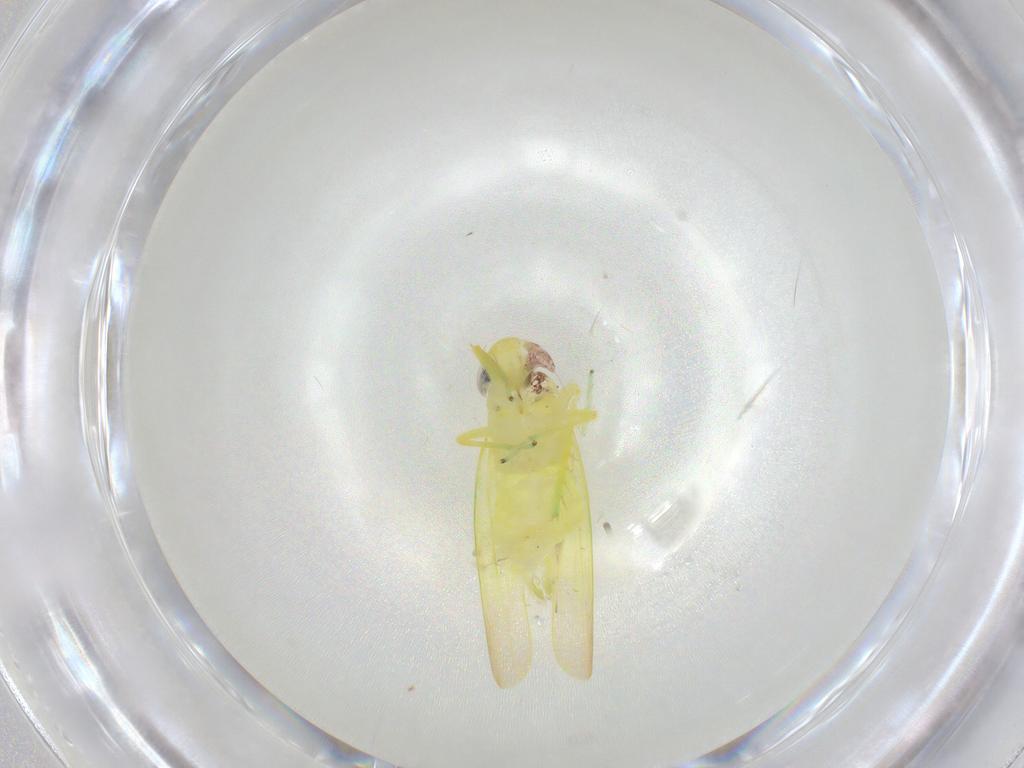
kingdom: Animalia
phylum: Arthropoda
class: Insecta
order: Hemiptera
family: Cicadellidae
